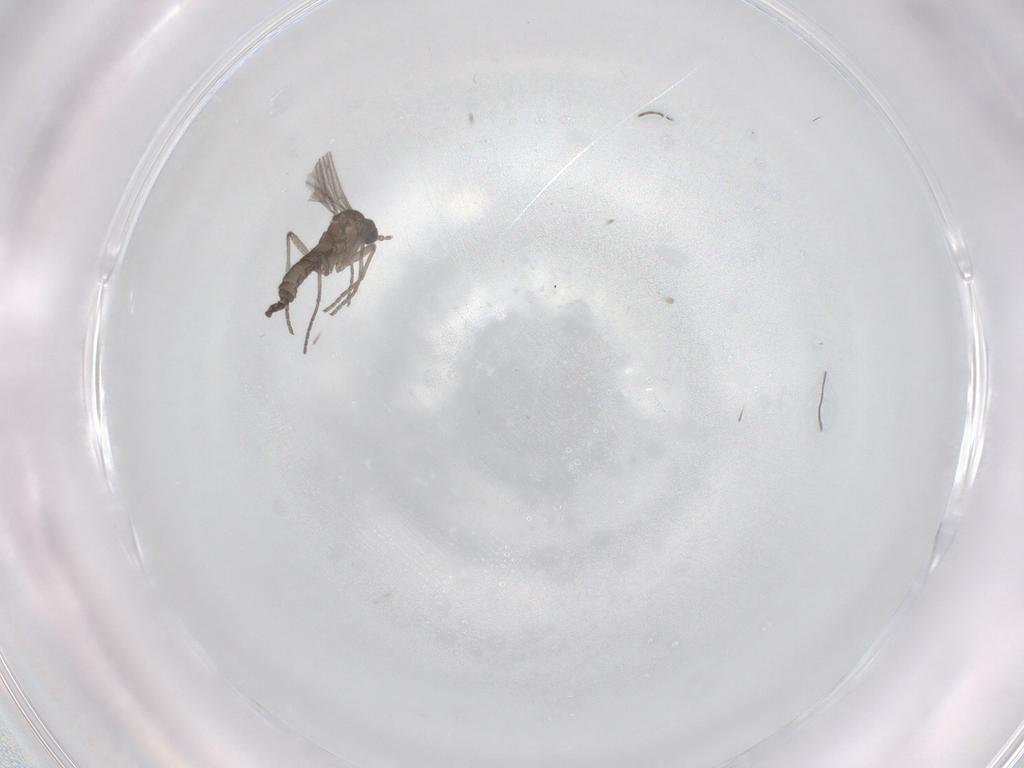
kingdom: Animalia
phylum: Arthropoda
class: Insecta
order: Diptera
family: Sciaridae
